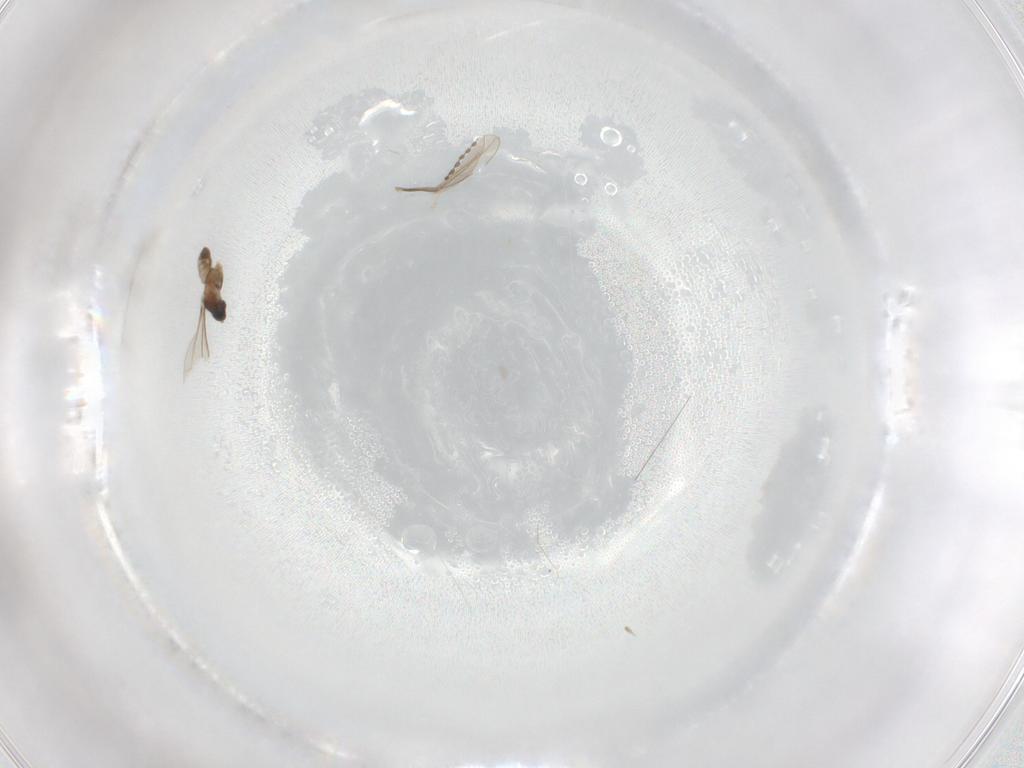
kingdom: Animalia
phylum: Arthropoda
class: Insecta
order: Diptera
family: Cecidomyiidae
